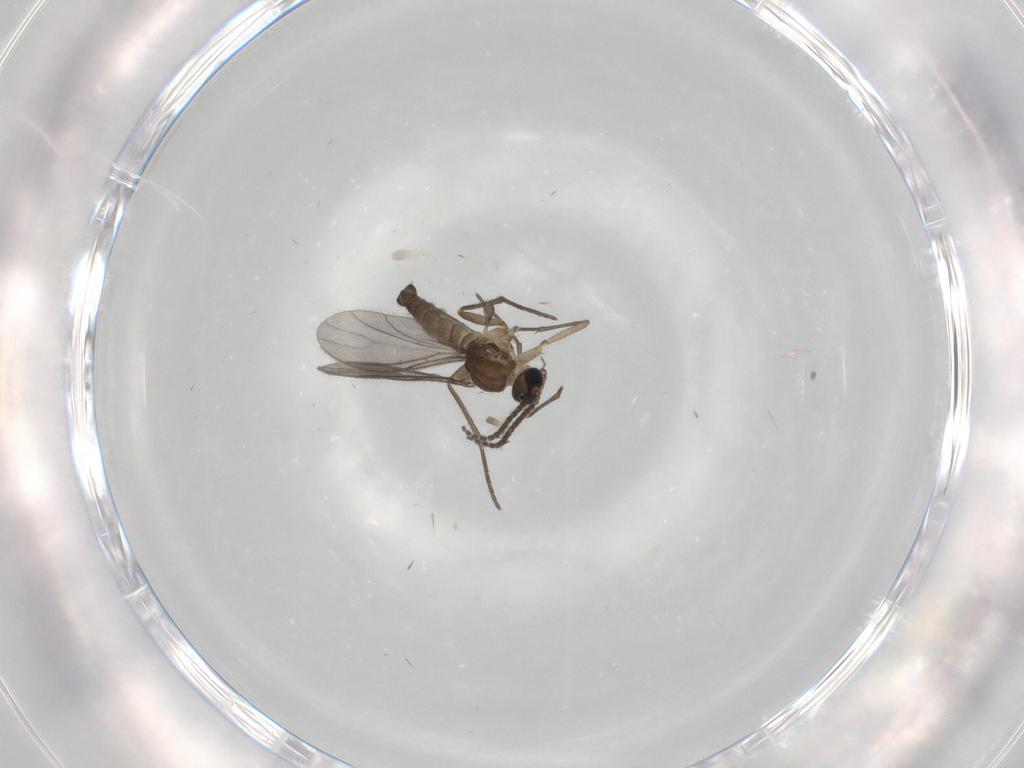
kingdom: Animalia
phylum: Arthropoda
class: Insecta
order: Diptera
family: Sciaridae
